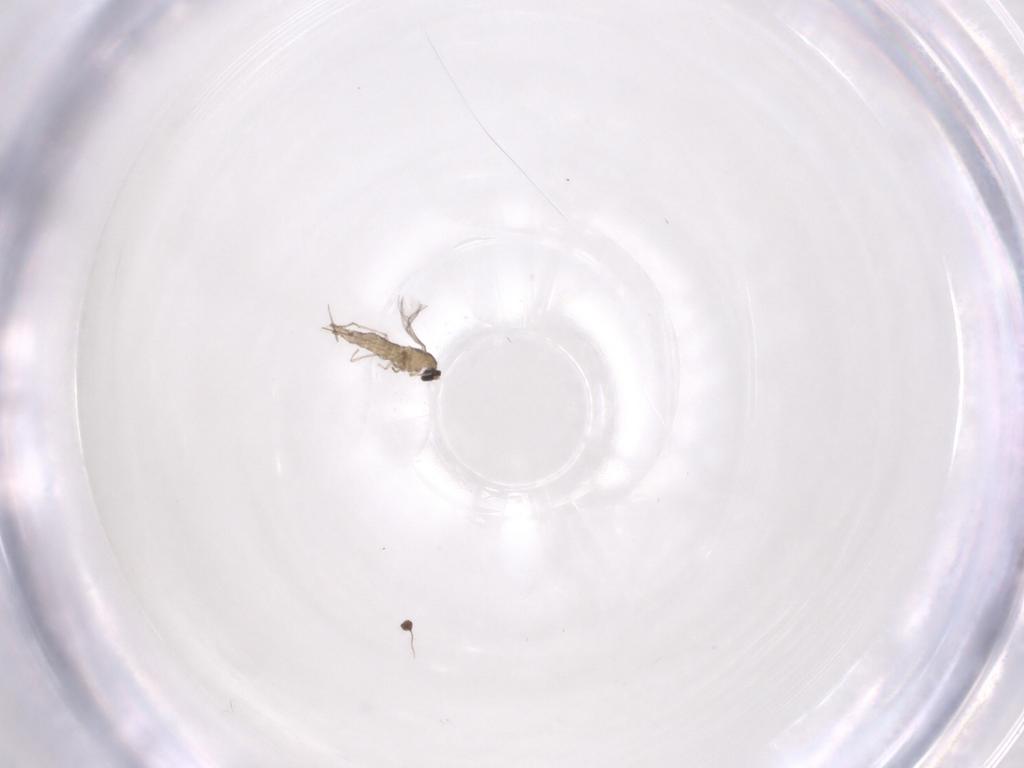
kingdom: Animalia
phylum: Arthropoda
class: Insecta
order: Diptera
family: Cecidomyiidae
